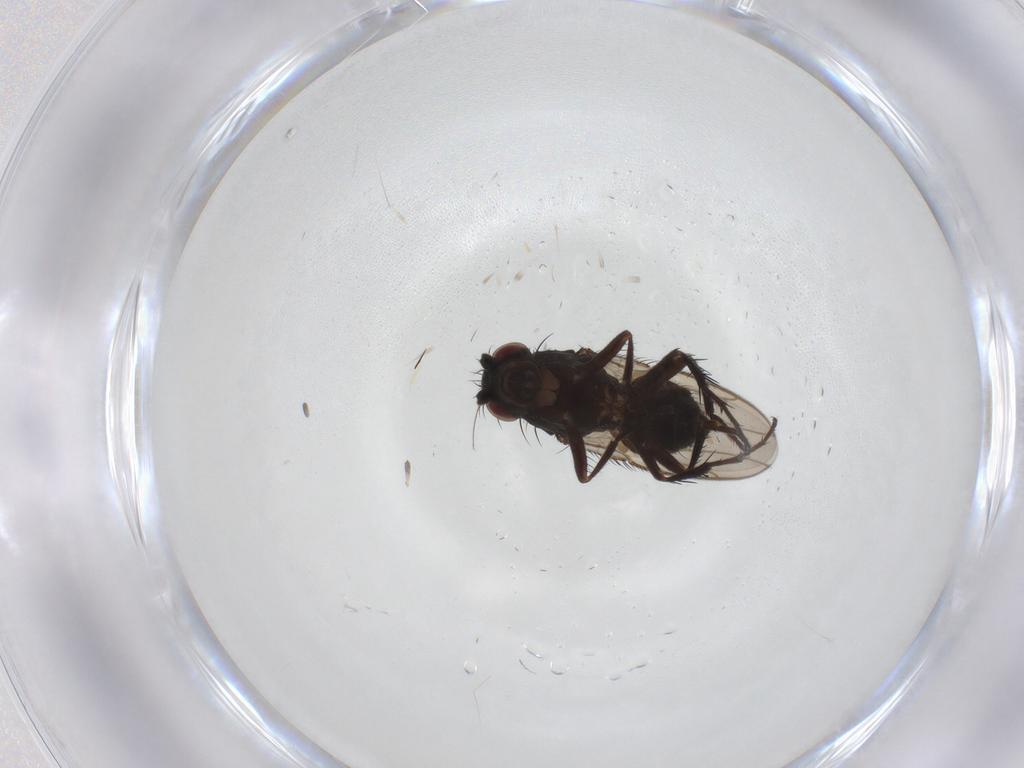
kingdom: Animalia
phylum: Arthropoda
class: Insecta
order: Diptera
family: Sphaeroceridae
